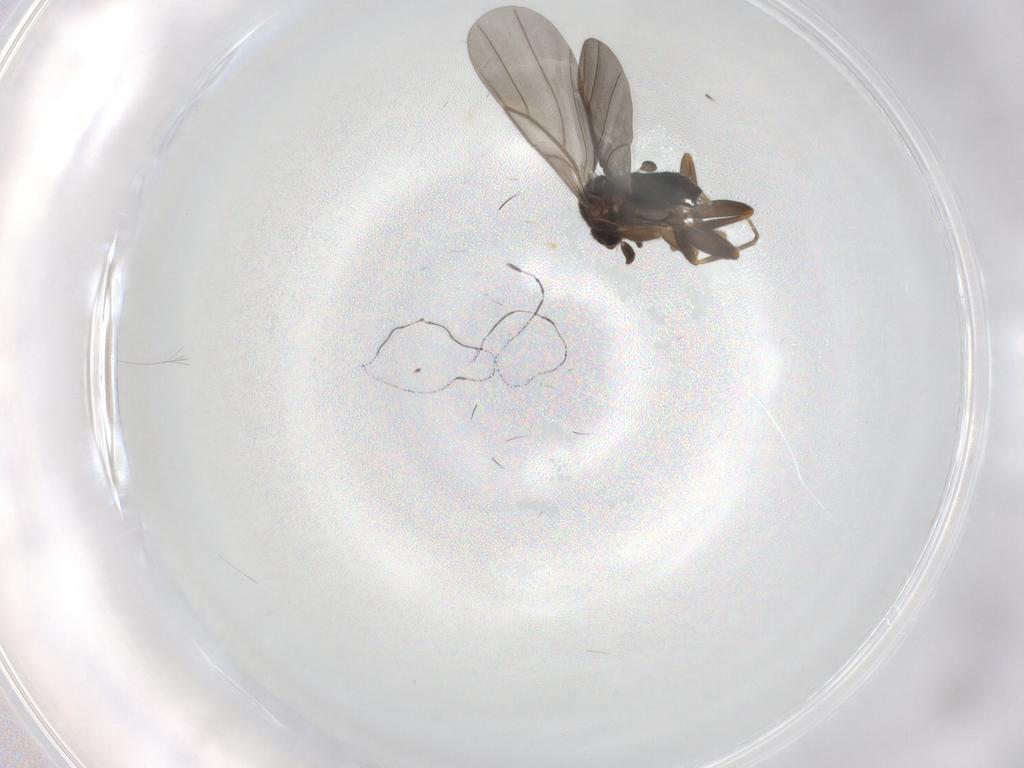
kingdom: Animalia
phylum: Arthropoda
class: Insecta
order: Diptera
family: Phoridae
